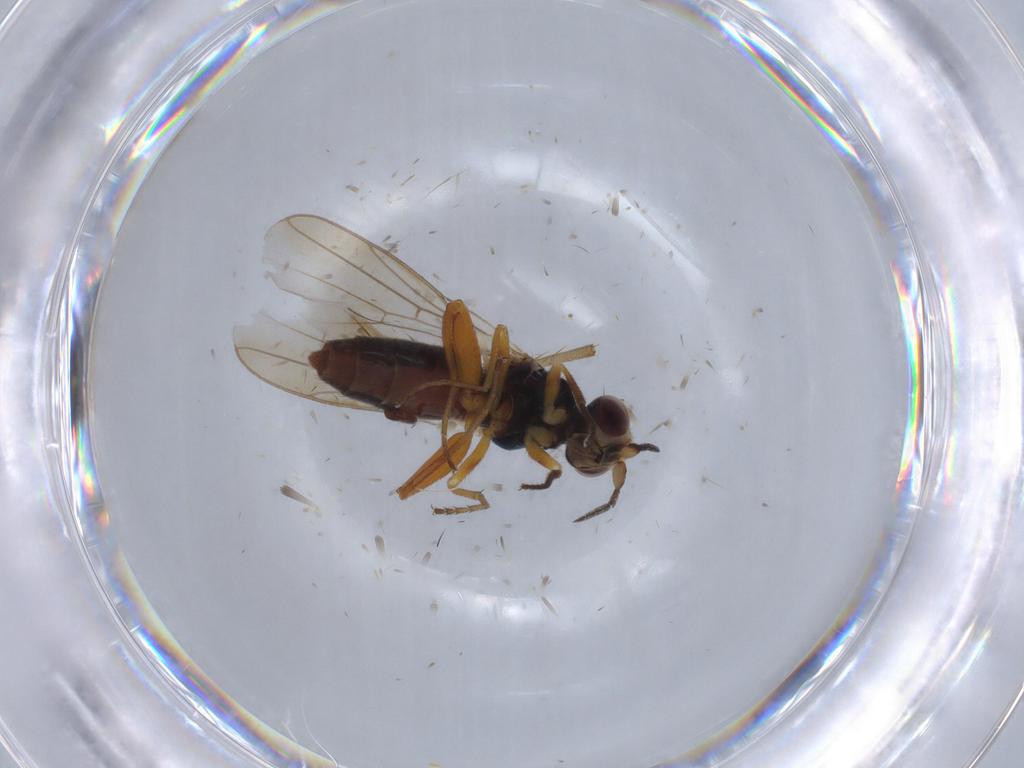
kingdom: Animalia
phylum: Arthropoda
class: Insecta
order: Diptera
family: Chloropidae
